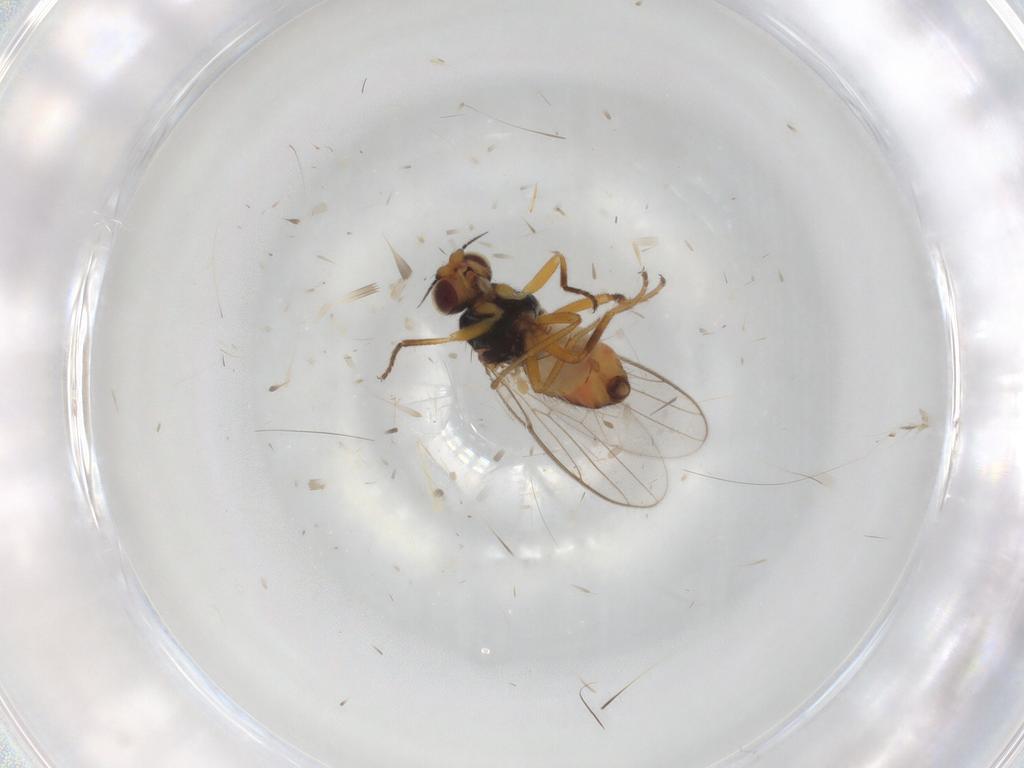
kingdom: Animalia
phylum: Arthropoda
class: Insecta
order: Diptera
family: Chloropidae
